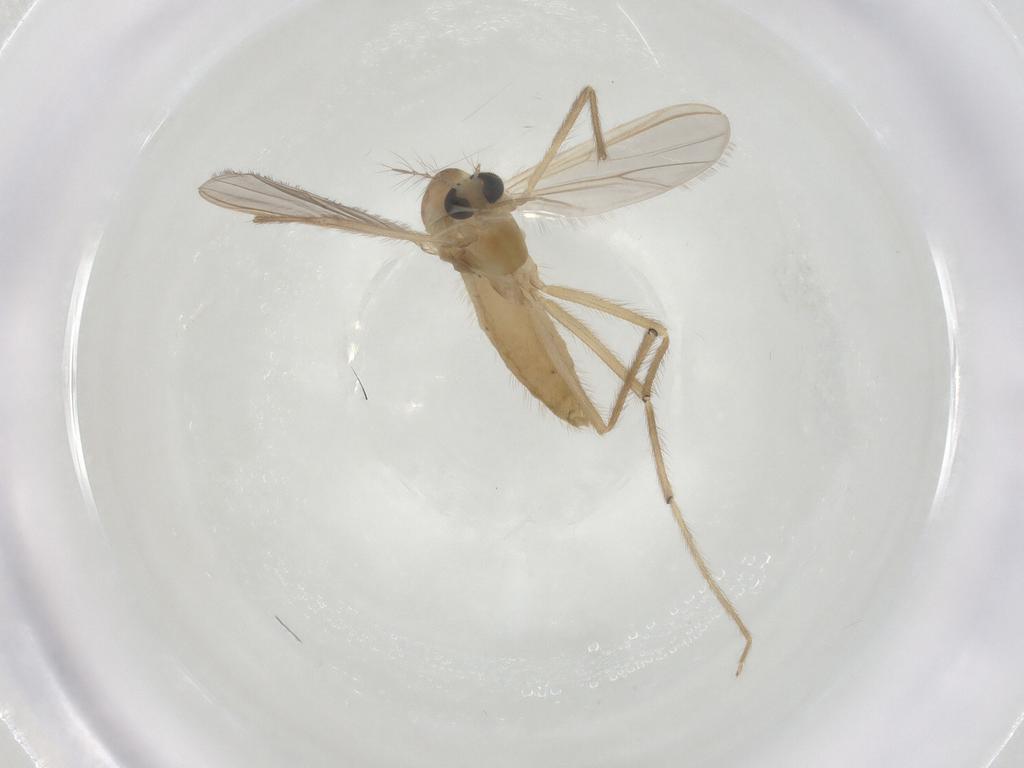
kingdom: Animalia
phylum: Arthropoda
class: Insecta
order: Diptera
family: Chironomidae
